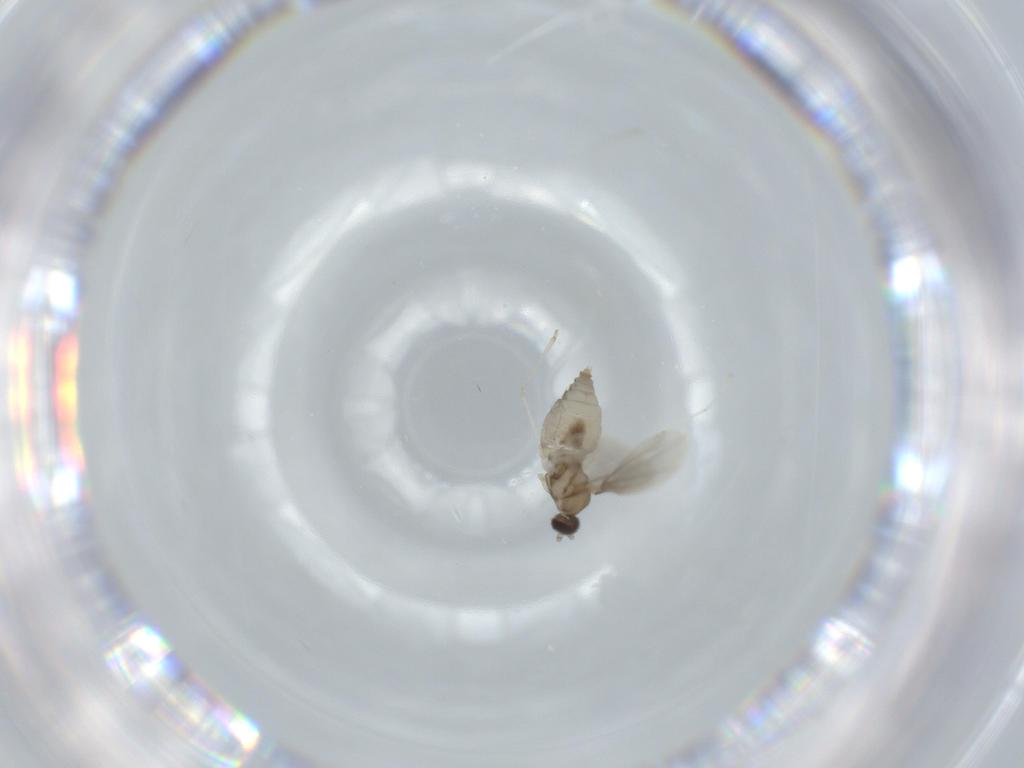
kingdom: Animalia
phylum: Arthropoda
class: Insecta
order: Diptera
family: Cecidomyiidae
